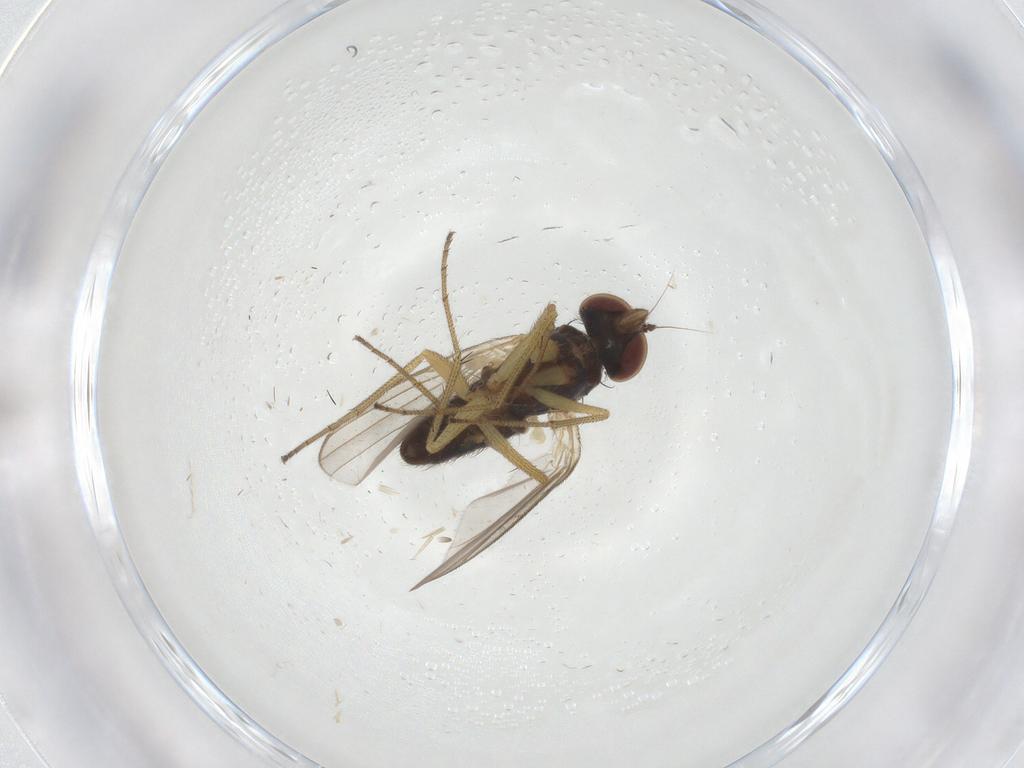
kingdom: Animalia
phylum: Arthropoda
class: Insecta
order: Diptera
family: Dolichopodidae
